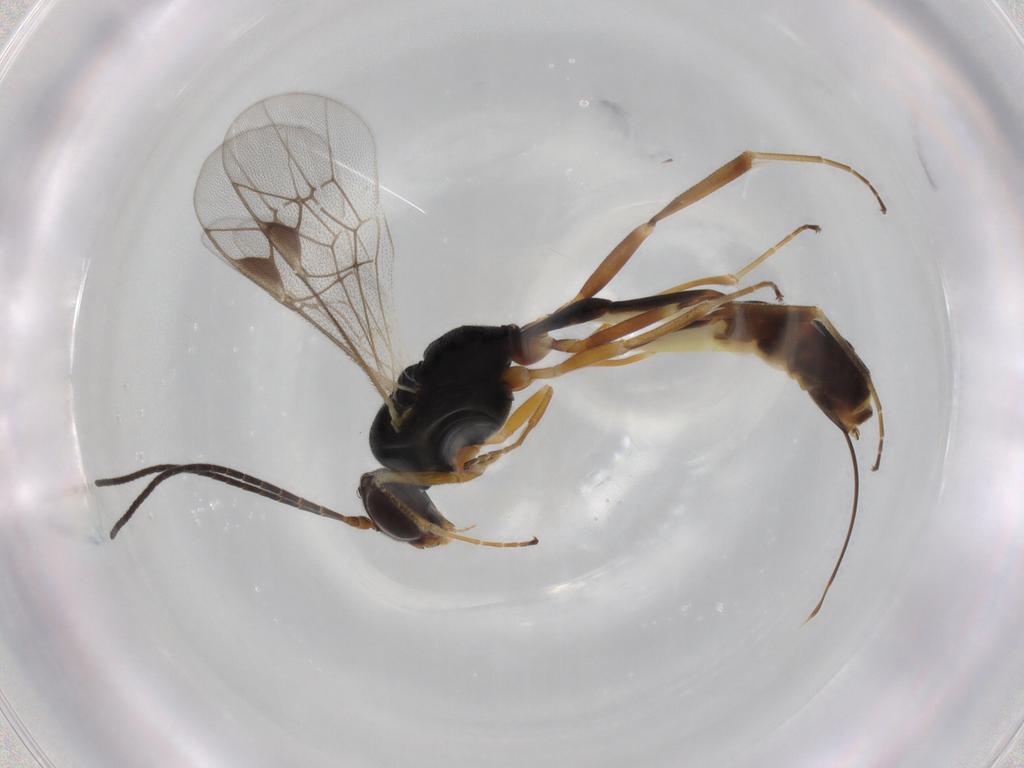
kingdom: Animalia
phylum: Arthropoda
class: Insecta
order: Hymenoptera
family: Ichneumonidae
